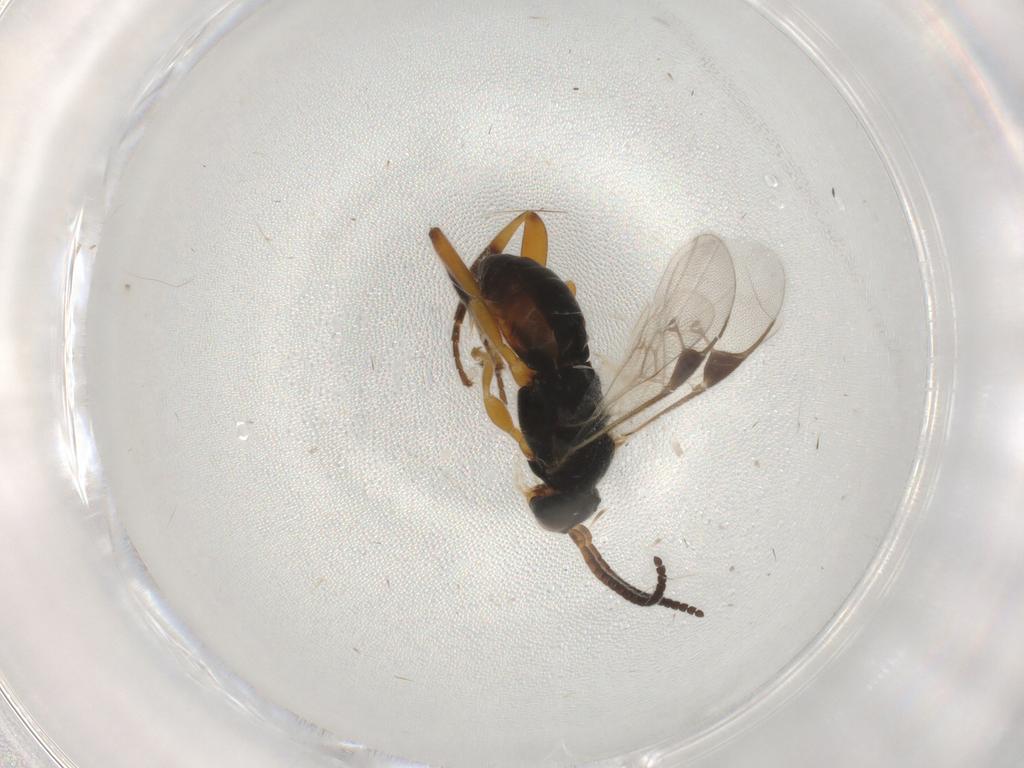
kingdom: Animalia
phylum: Arthropoda
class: Insecta
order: Hymenoptera
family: Braconidae
